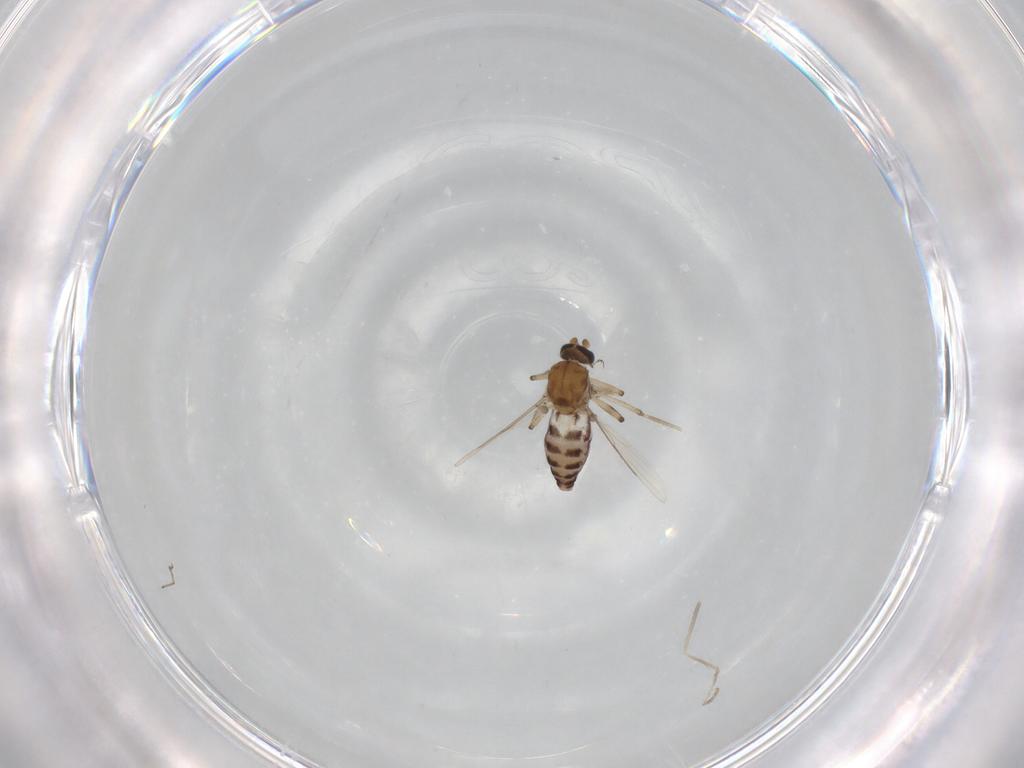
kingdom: Animalia
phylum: Arthropoda
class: Insecta
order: Diptera
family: Ceratopogonidae
